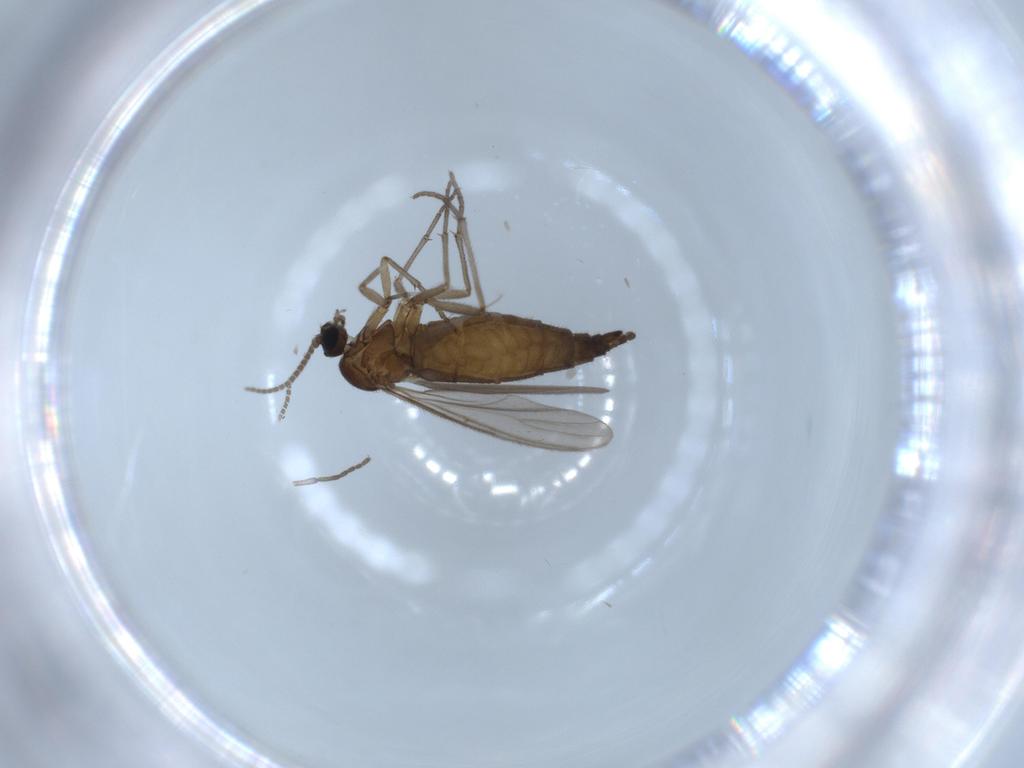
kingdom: Animalia
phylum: Arthropoda
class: Insecta
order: Diptera
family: Sciaridae
